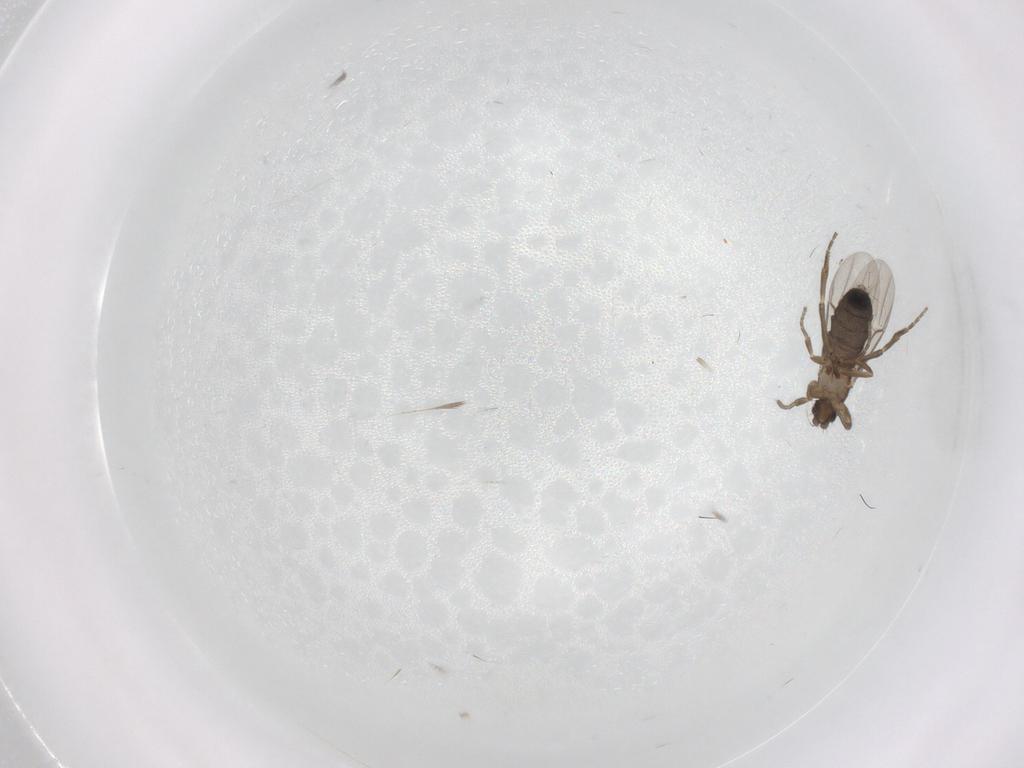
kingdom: Animalia
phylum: Arthropoda
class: Insecta
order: Diptera
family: Phoridae
